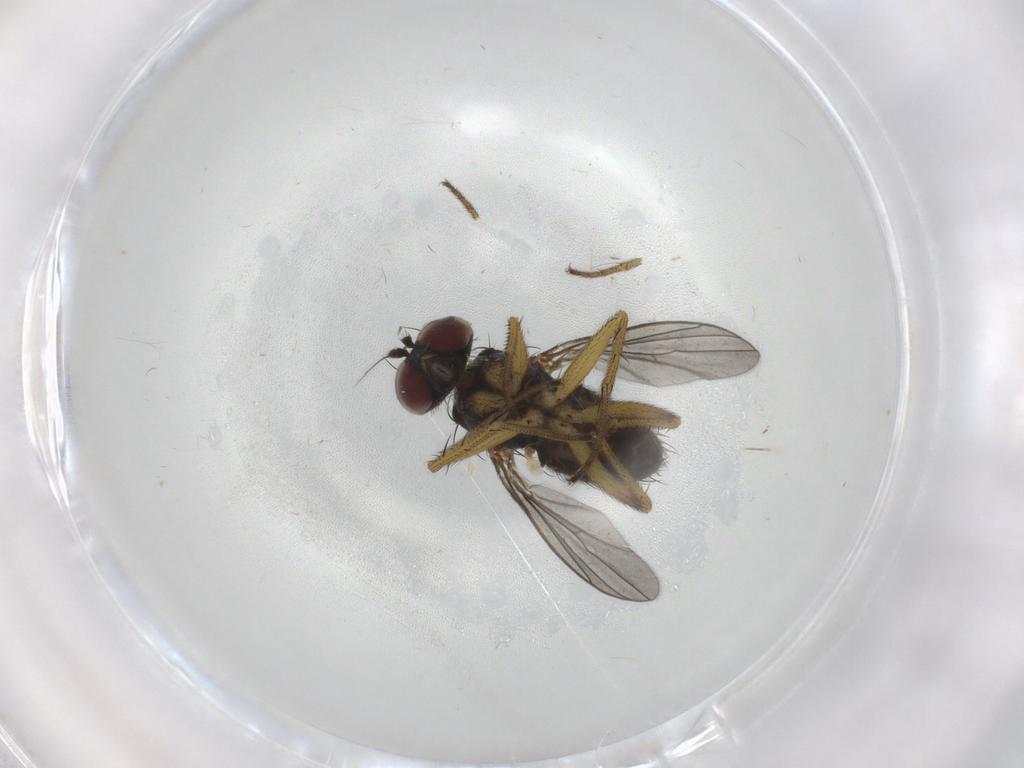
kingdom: Animalia
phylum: Arthropoda
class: Insecta
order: Diptera
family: Dolichopodidae
